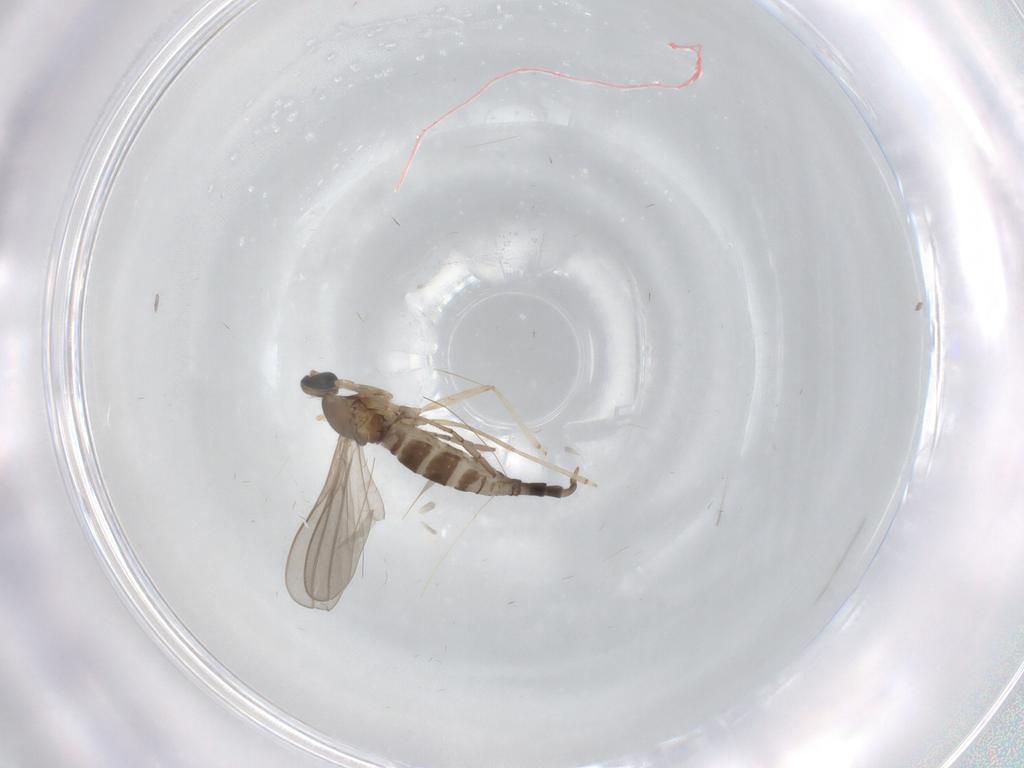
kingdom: Animalia
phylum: Arthropoda
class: Insecta
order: Diptera
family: Cecidomyiidae
